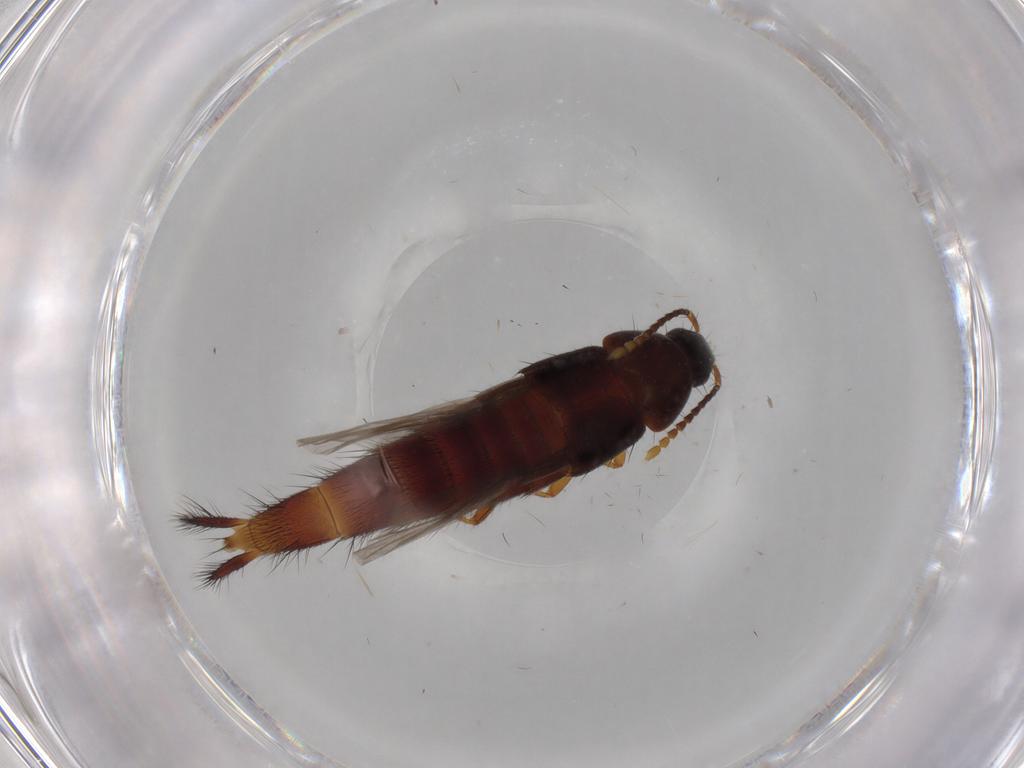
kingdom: Animalia
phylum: Arthropoda
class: Insecta
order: Coleoptera
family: Staphylinidae
